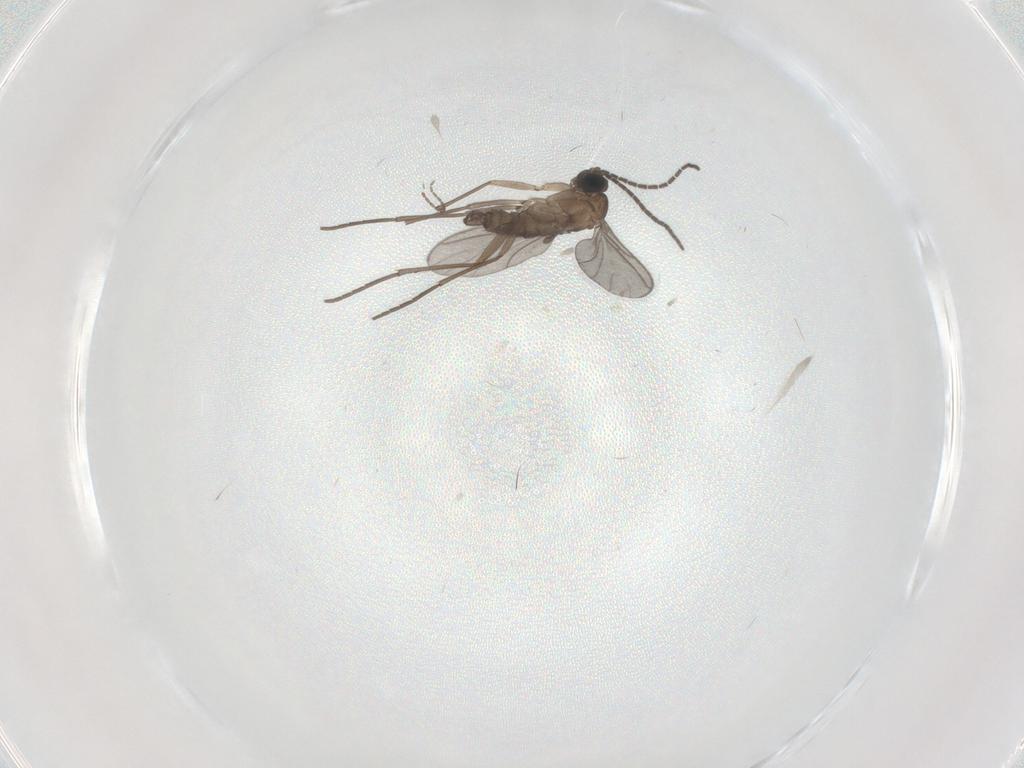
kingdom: Animalia
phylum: Arthropoda
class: Insecta
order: Diptera
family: Sciaridae
